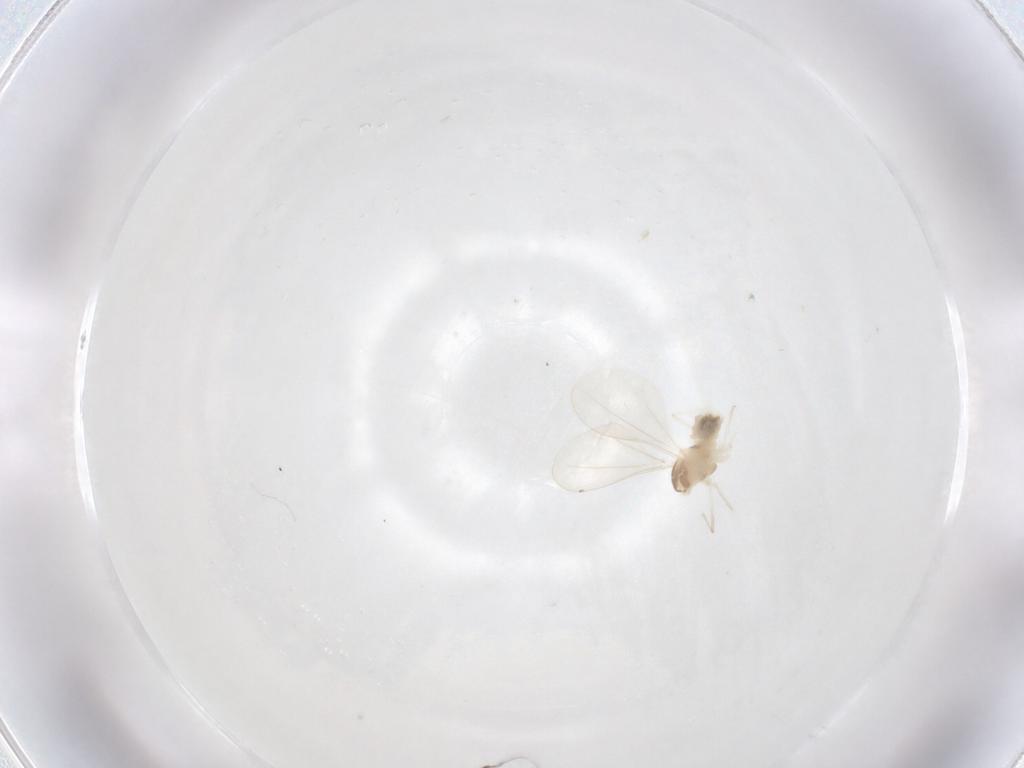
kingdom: Animalia
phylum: Arthropoda
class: Insecta
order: Diptera
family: Cecidomyiidae
